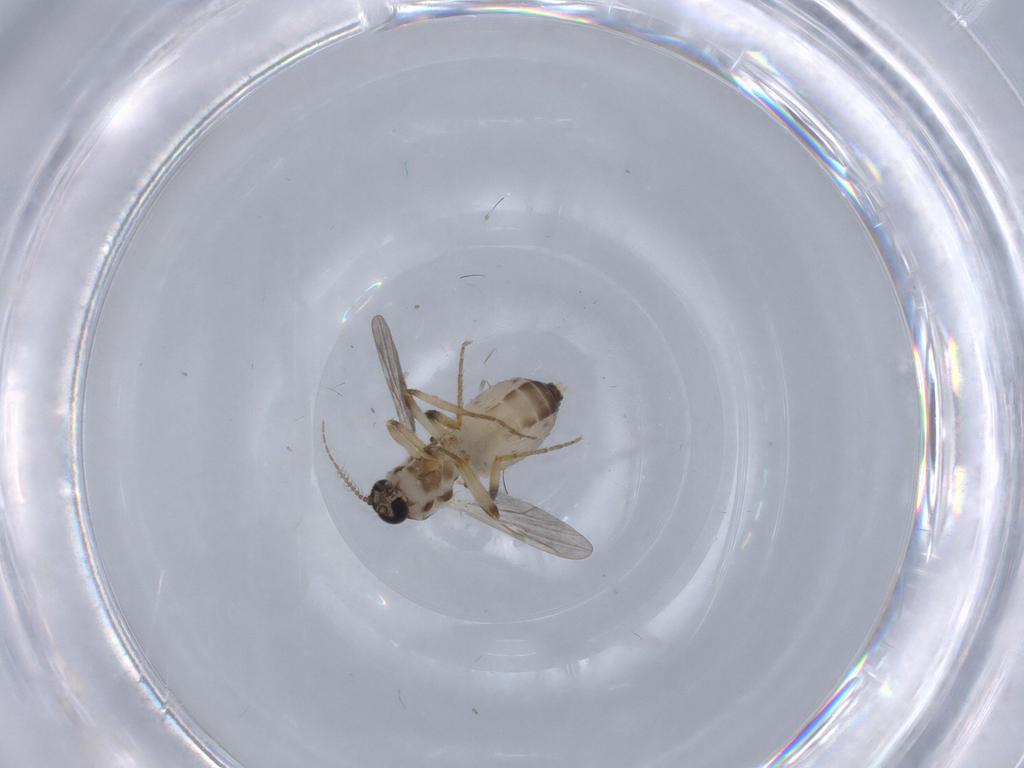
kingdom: Animalia
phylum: Arthropoda
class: Insecta
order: Diptera
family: Ceratopogonidae
